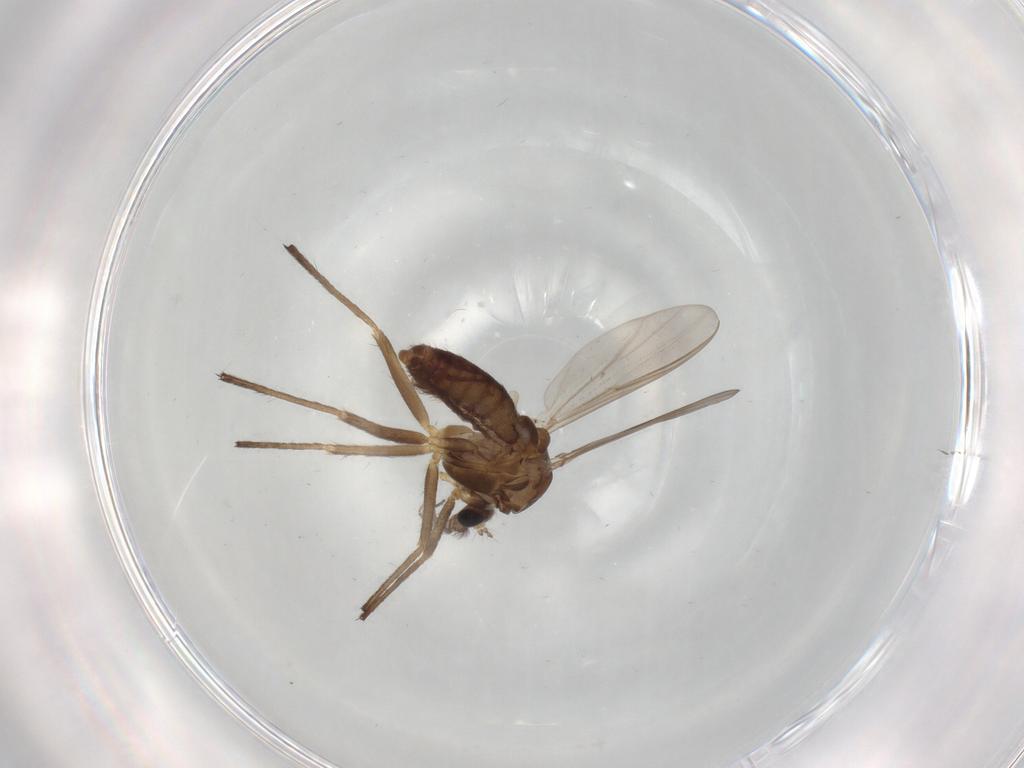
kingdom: Animalia
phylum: Arthropoda
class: Insecta
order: Diptera
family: Chironomidae
